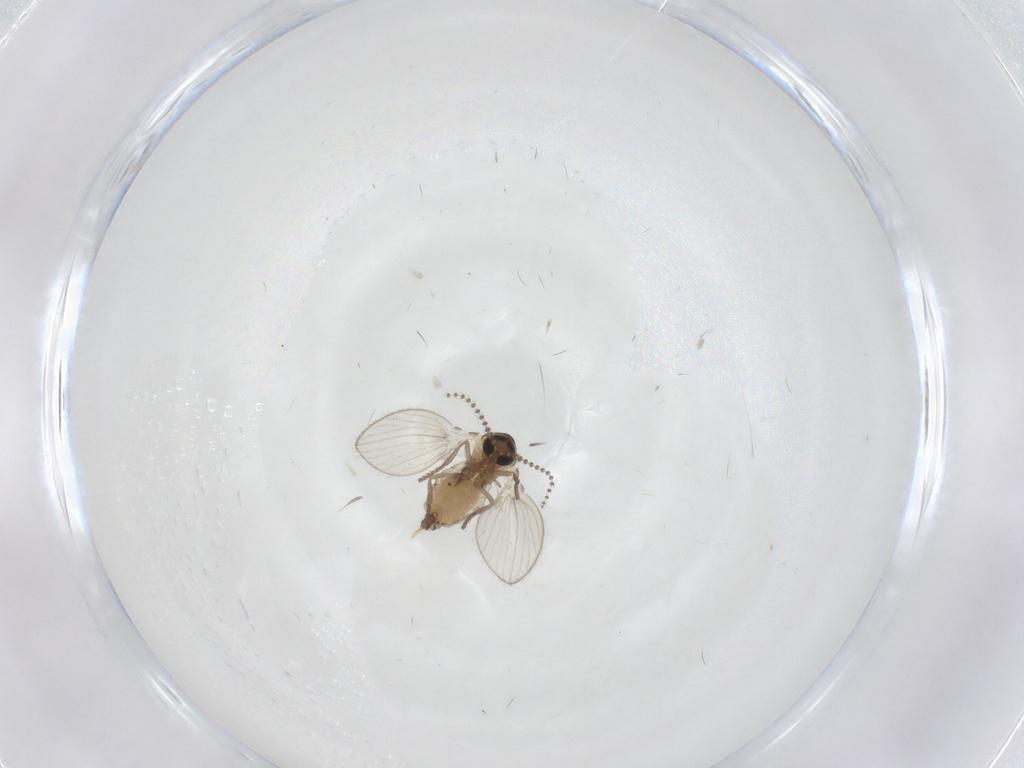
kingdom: Animalia
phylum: Arthropoda
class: Insecta
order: Diptera
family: Psychodidae
